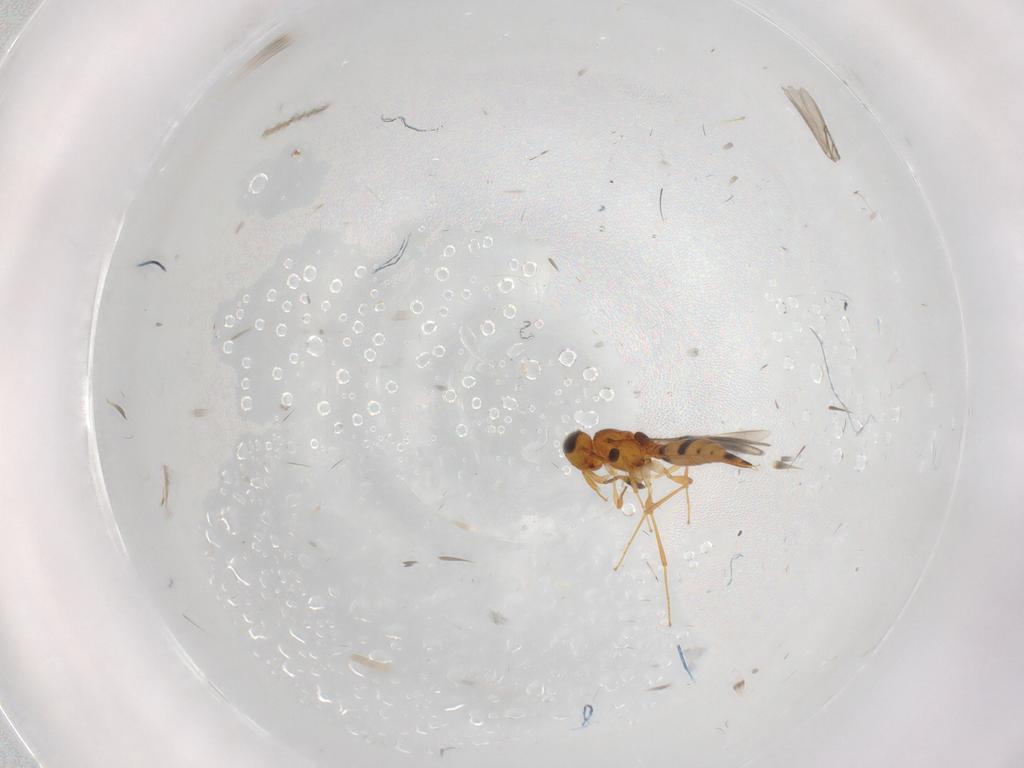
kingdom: Animalia
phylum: Arthropoda
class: Insecta
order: Hymenoptera
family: Scelionidae
